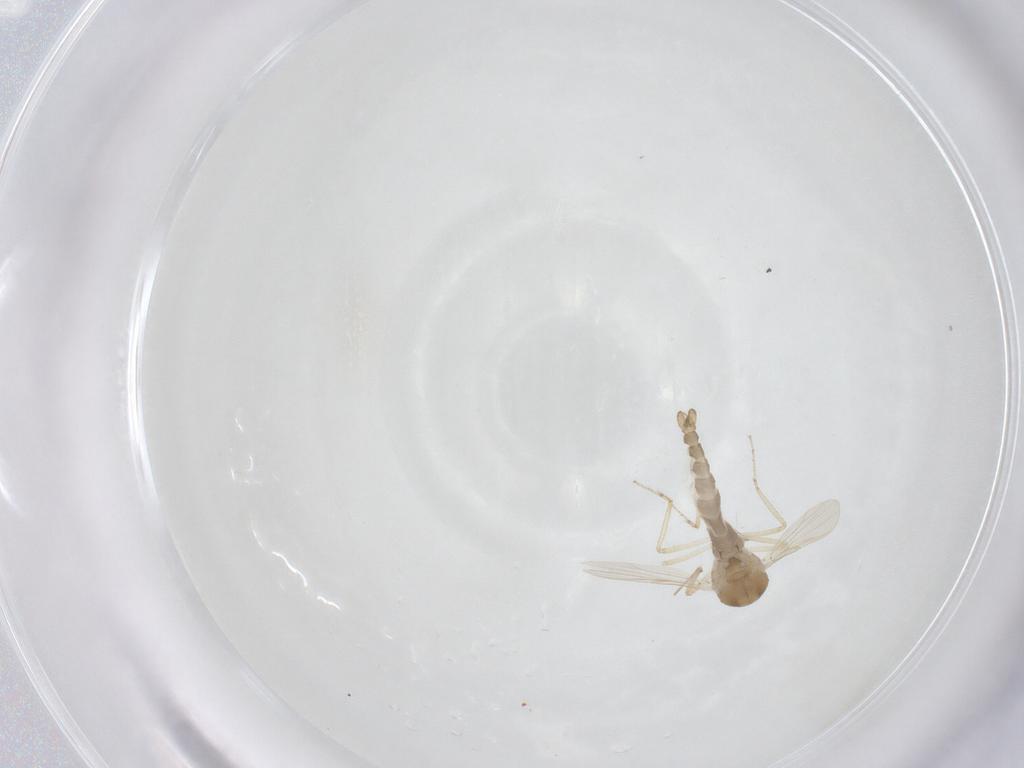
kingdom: Animalia
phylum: Arthropoda
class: Insecta
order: Diptera
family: Ceratopogonidae
